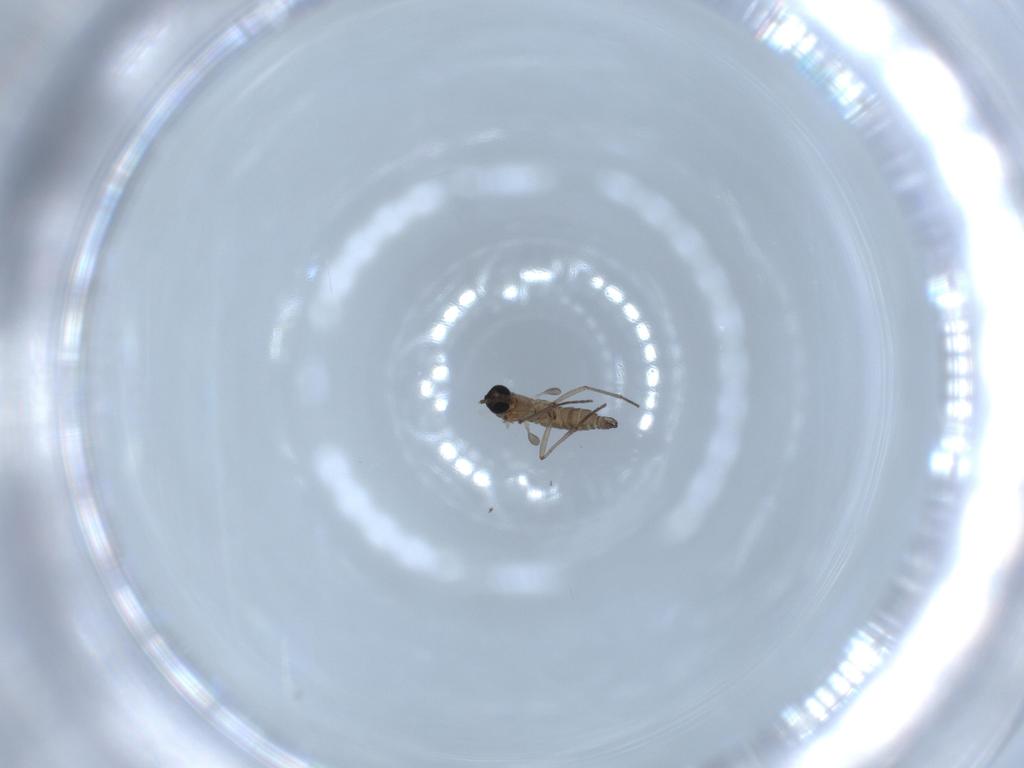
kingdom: Animalia
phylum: Arthropoda
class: Insecta
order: Diptera
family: Sciaridae
